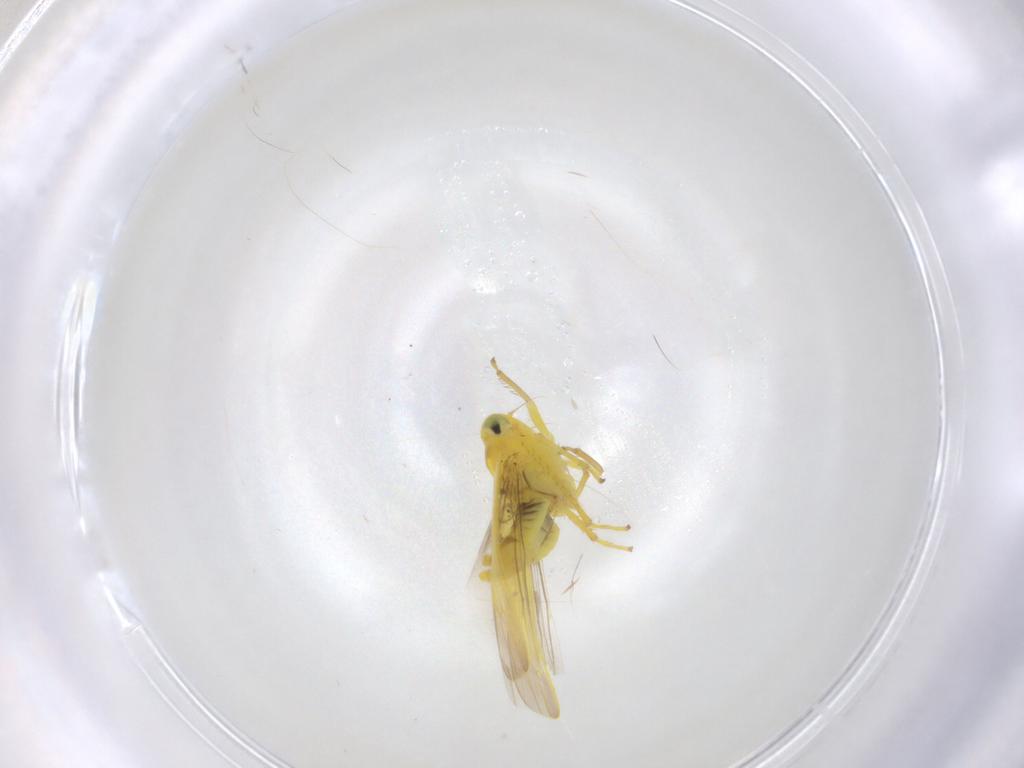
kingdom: Animalia
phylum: Arthropoda
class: Insecta
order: Hemiptera
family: Cicadellidae
